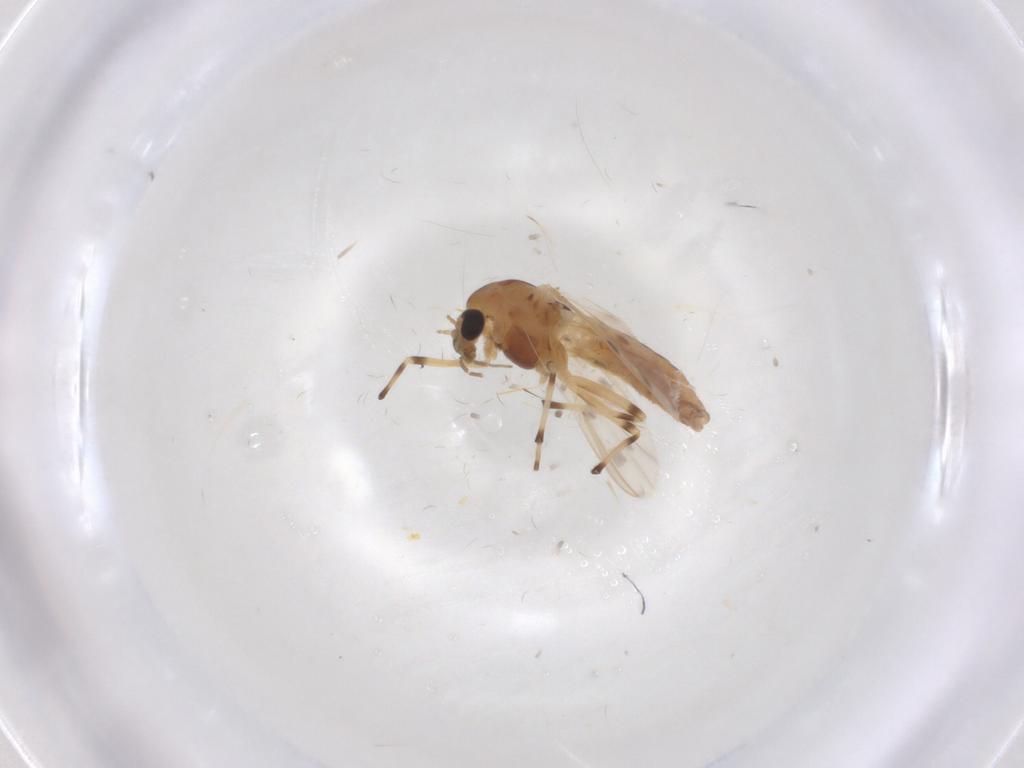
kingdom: Animalia
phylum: Arthropoda
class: Insecta
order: Diptera
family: Chironomidae
